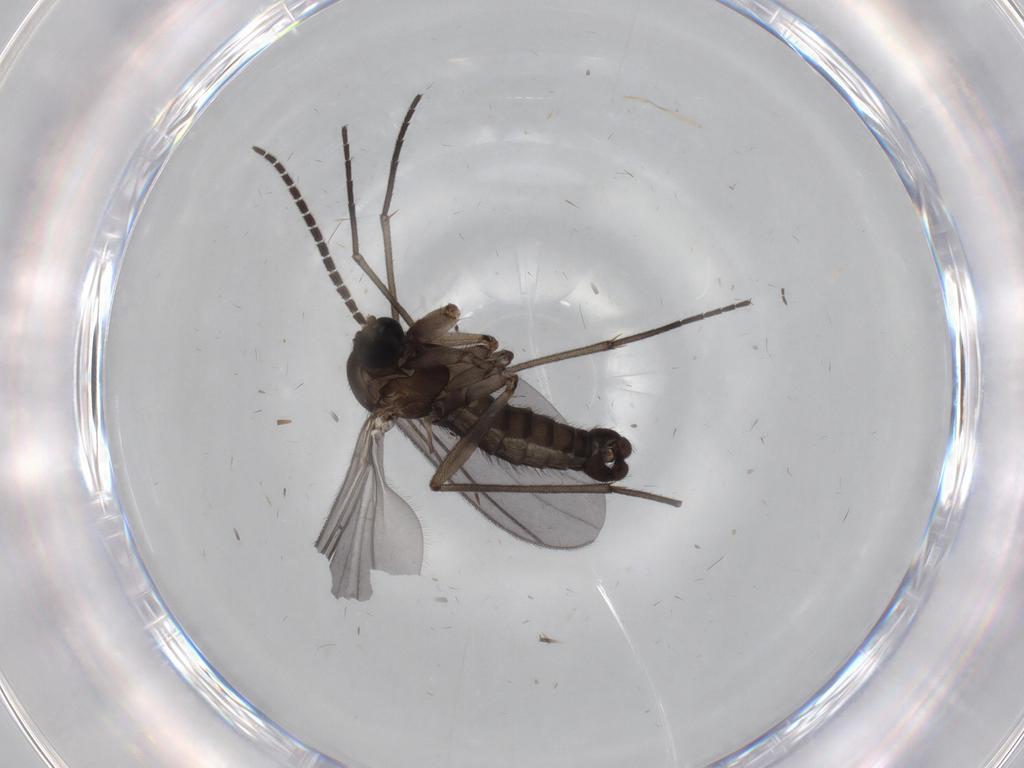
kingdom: Animalia
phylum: Arthropoda
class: Insecta
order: Diptera
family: Sciaridae
